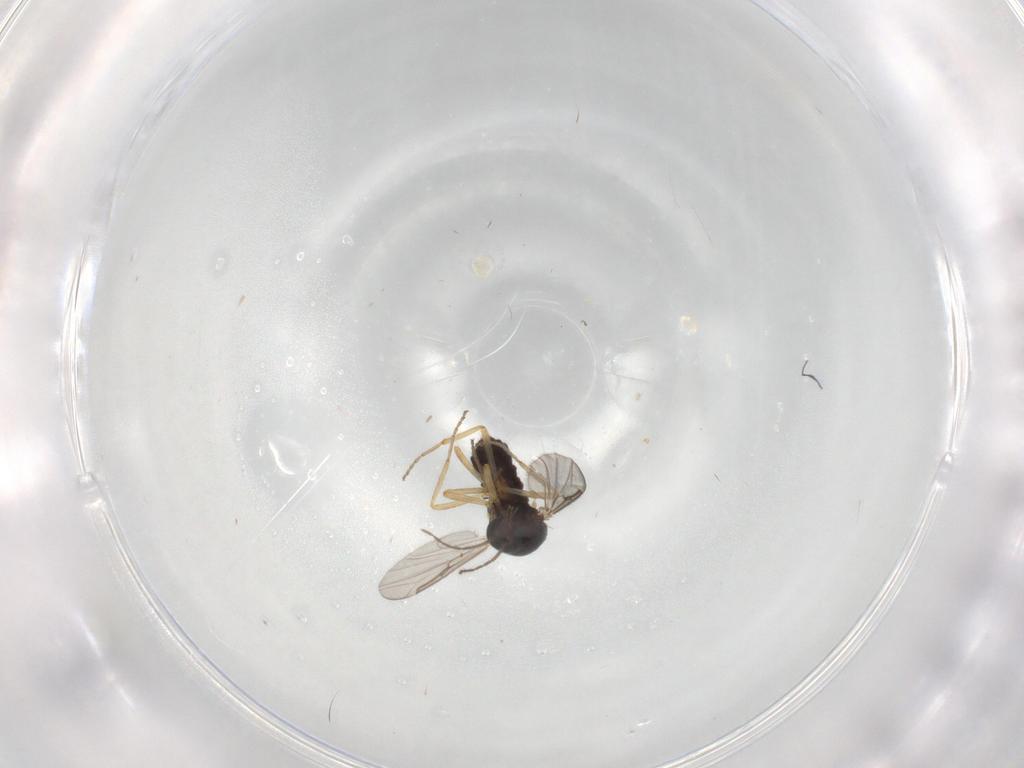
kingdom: Animalia
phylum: Arthropoda
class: Insecta
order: Diptera
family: Ceratopogonidae
